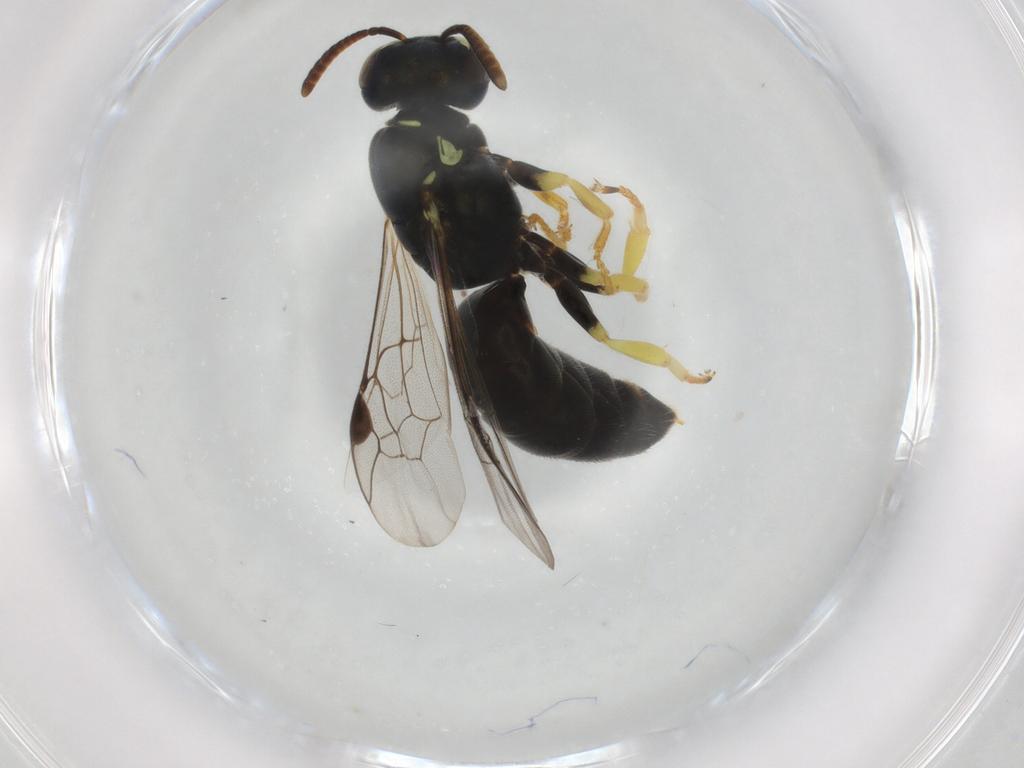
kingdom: Animalia
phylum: Arthropoda
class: Insecta
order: Hymenoptera
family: Colletidae
